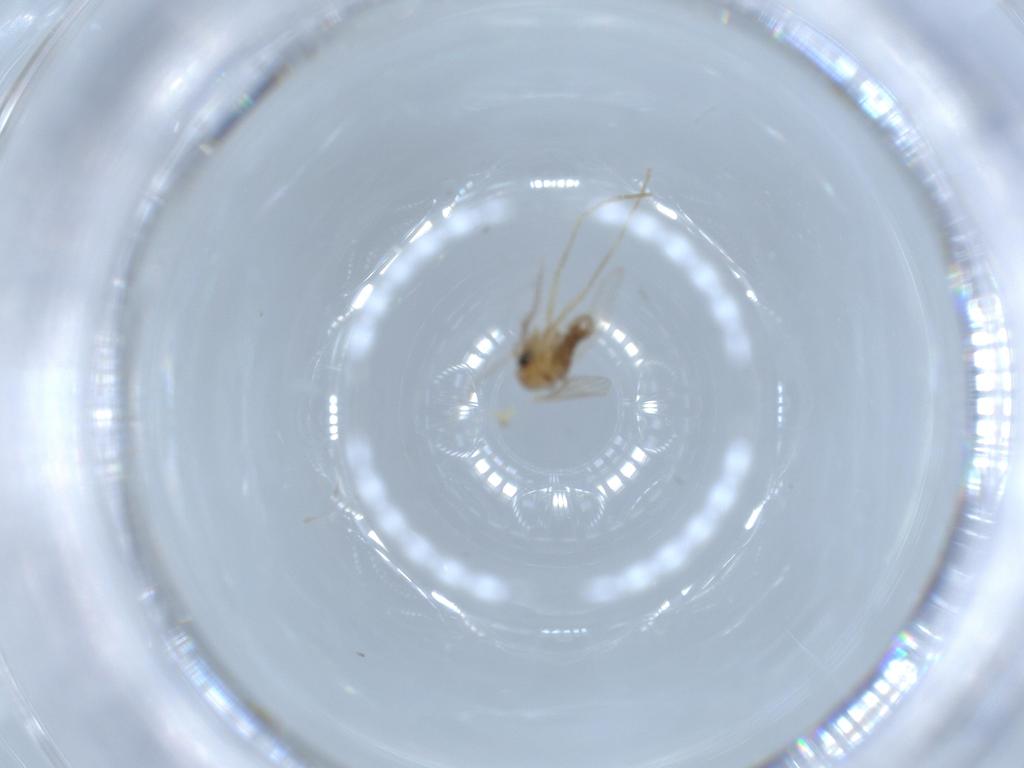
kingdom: Animalia
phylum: Arthropoda
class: Insecta
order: Diptera
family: Psychodidae
